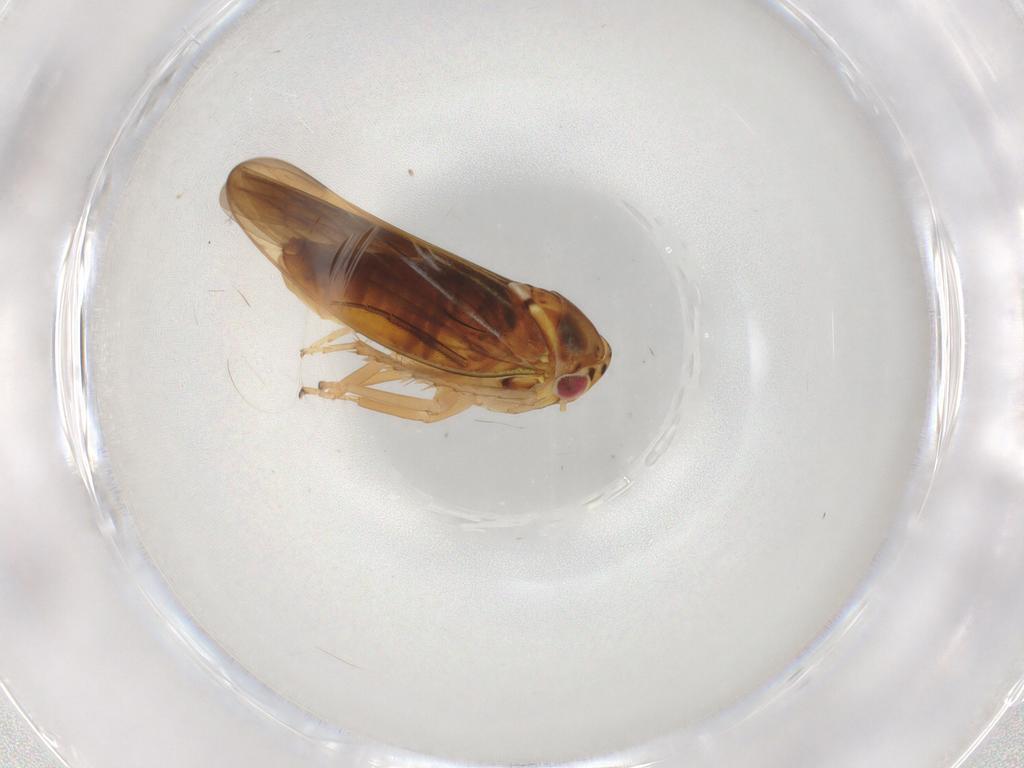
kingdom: Animalia
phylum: Arthropoda
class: Insecta
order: Hemiptera
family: Cicadellidae
